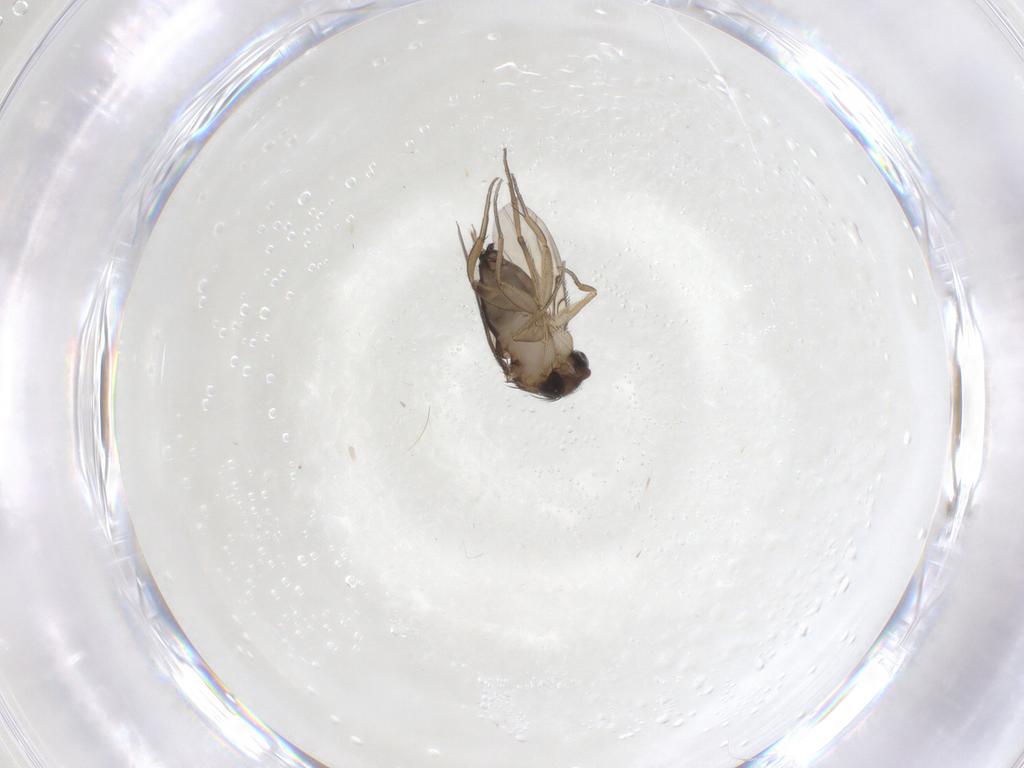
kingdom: Animalia
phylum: Arthropoda
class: Insecta
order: Diptera
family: Phoridae
